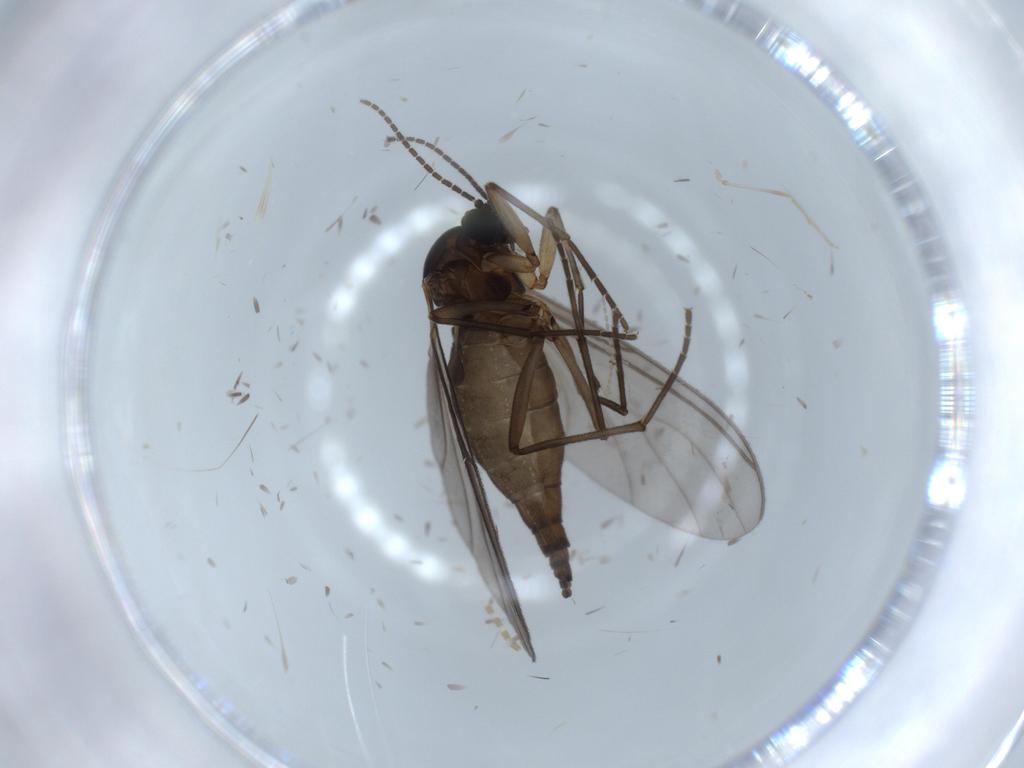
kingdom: Animalia
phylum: Arthropoda
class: Insecta
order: Diptera
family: Sciaridae
